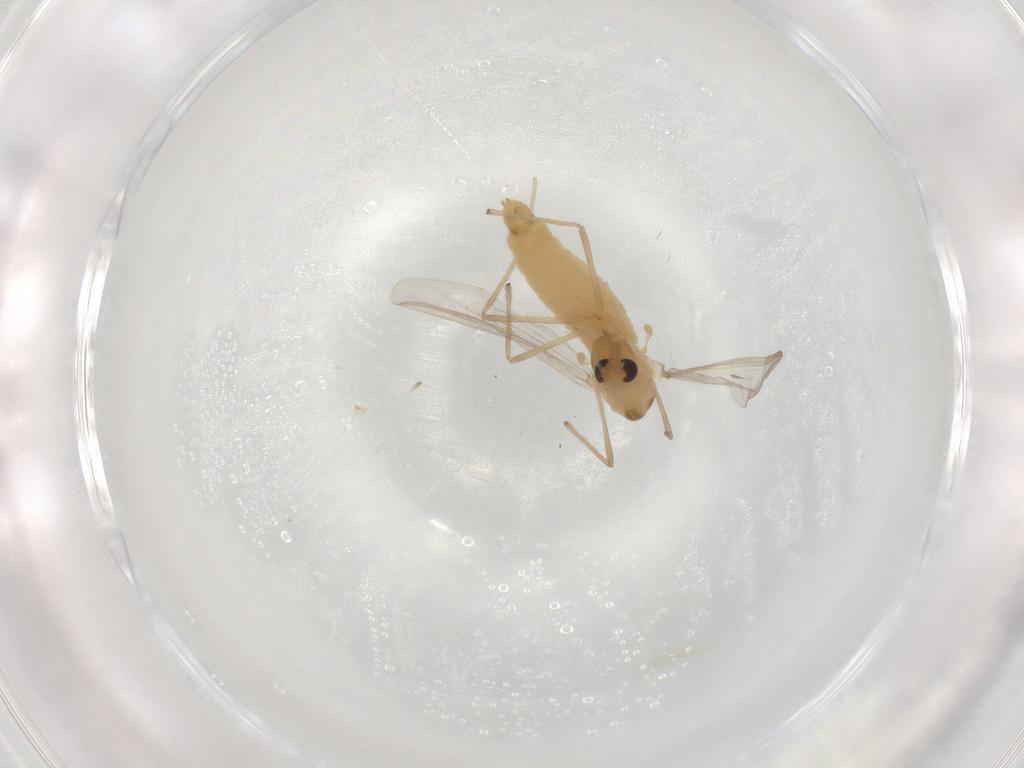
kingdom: Animalia
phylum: Arthropoda
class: Insecta
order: Diptera
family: Chironomidae
